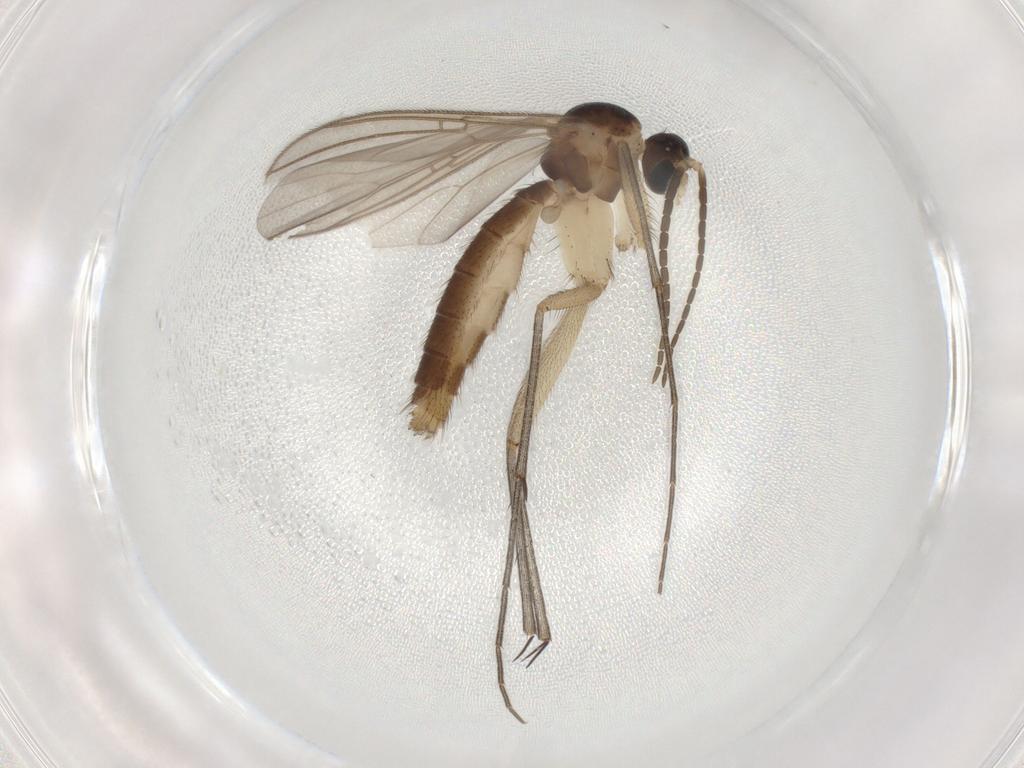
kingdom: Animalia
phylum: Arthropoda
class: Insecta
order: Diptera
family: Mycetophilidae
